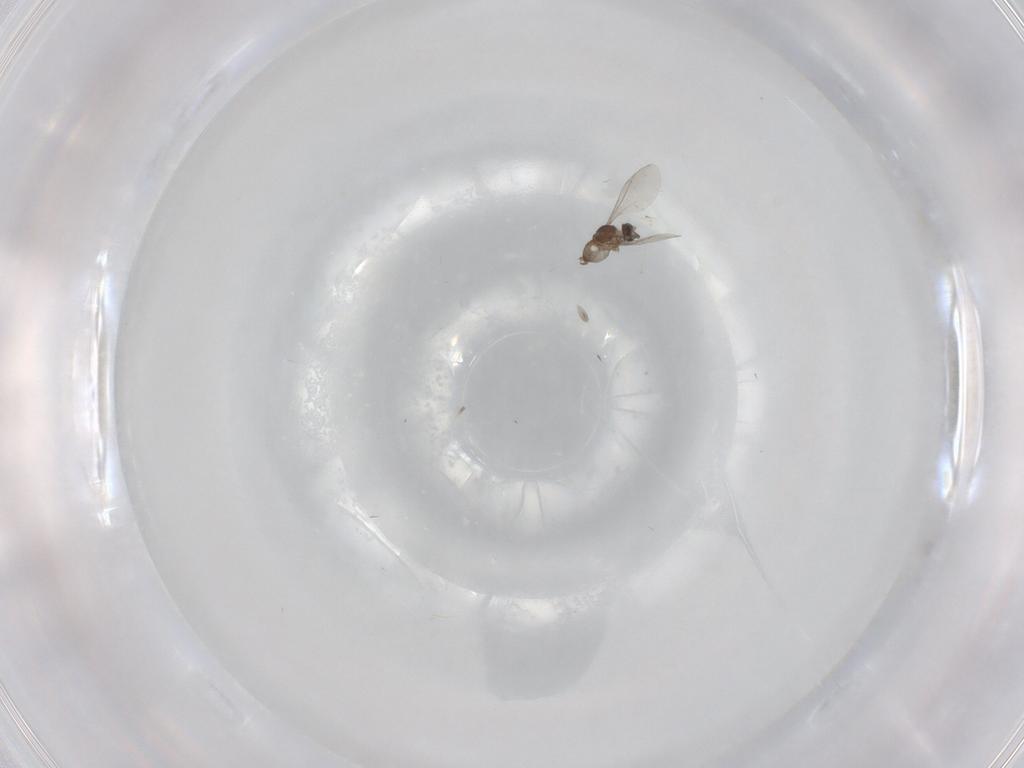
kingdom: Animalia
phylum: Arthropoda
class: Insecta
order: Diptera
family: Cecidomyiidae
